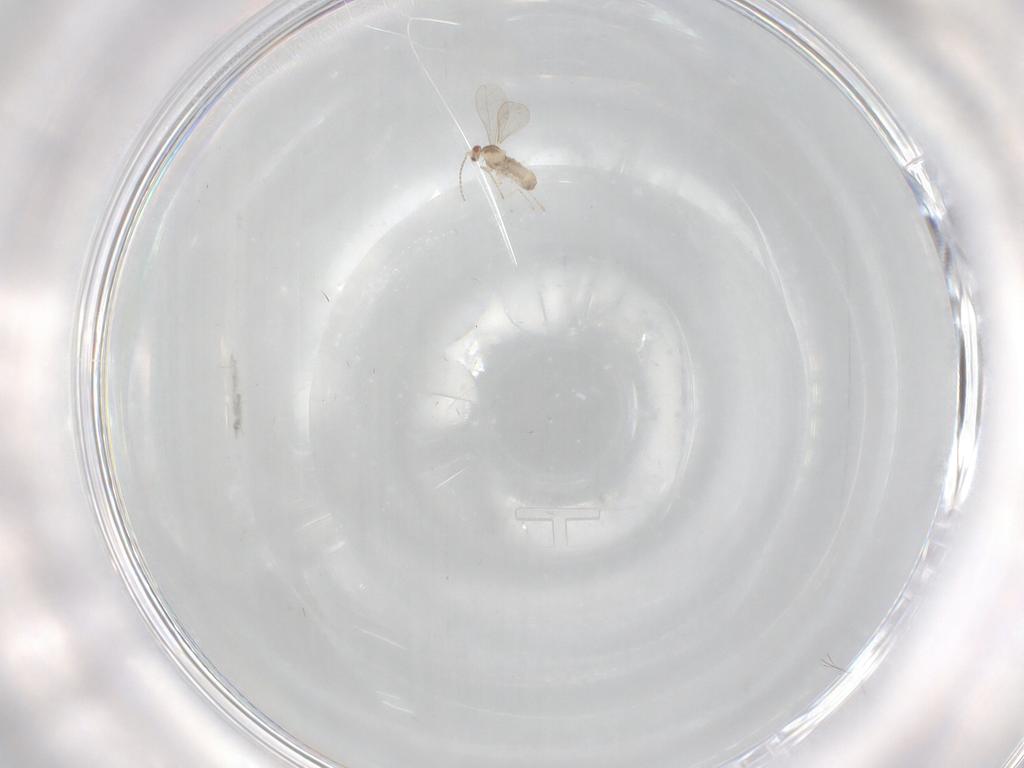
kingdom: Animalia
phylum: Arthropoda
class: Insecta
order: Diptera
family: Cecidomyiidae
